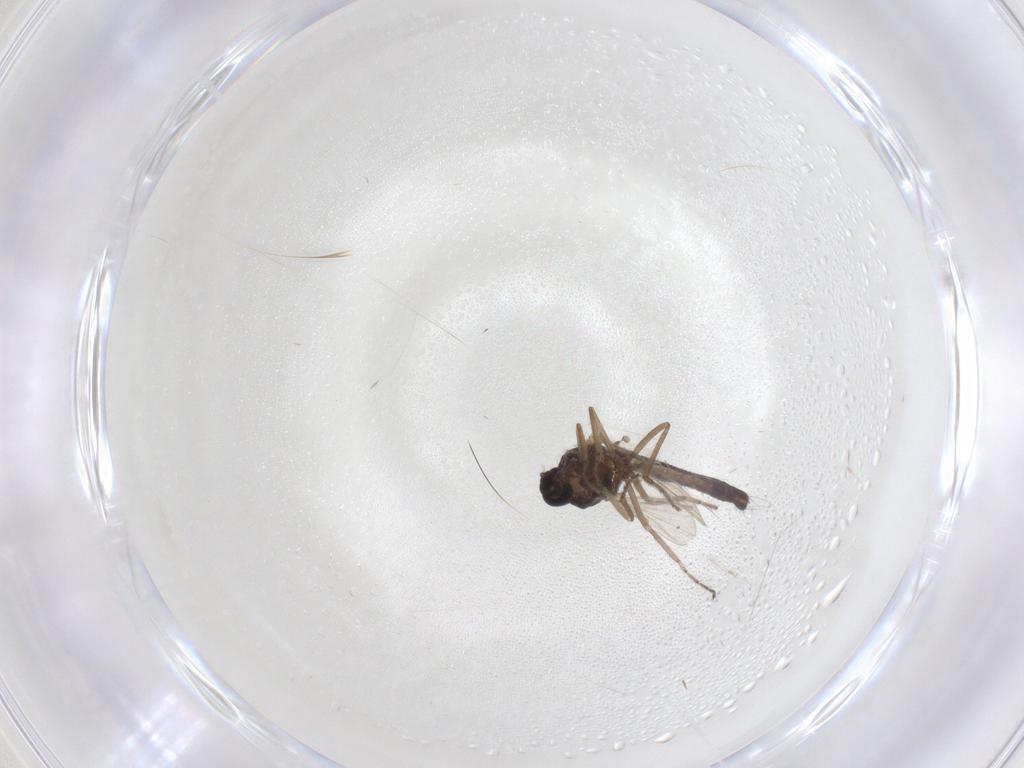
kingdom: Animalia
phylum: Arthropoda
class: Insecta
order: Diptera
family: Ceratopogonidae
